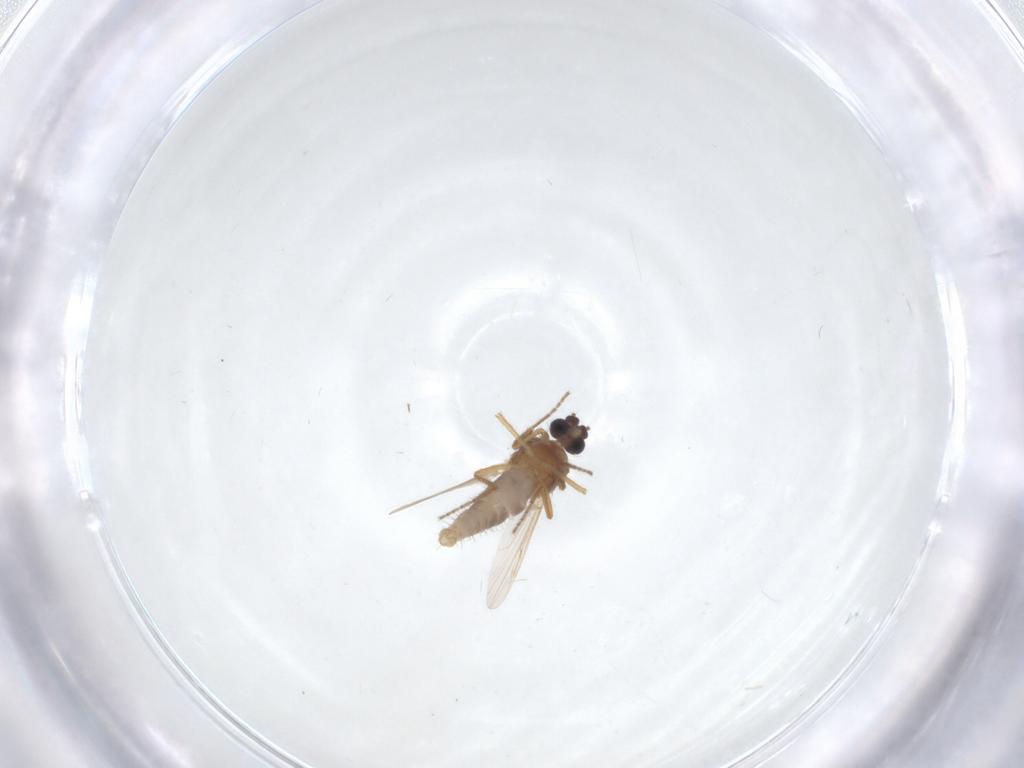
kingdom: Animalia
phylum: Arthropoda
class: Insecta
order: Diptera
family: Ceratopogonidae
